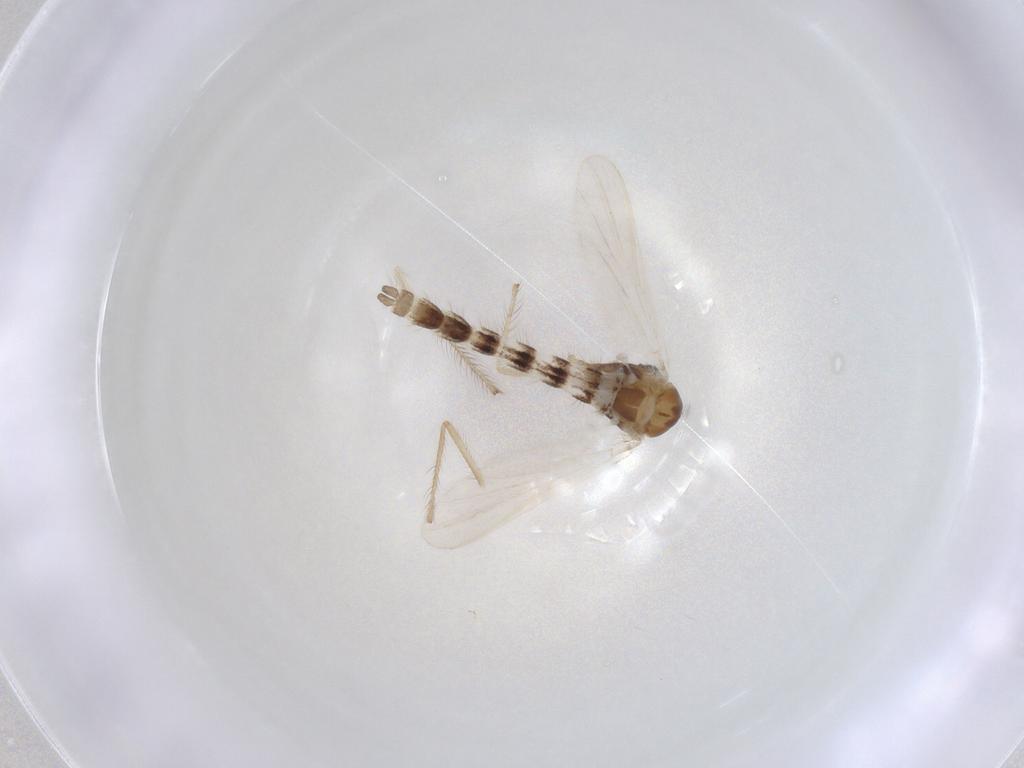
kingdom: Animalia
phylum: Arthropoda
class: Insecta
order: Diptera
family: Chironomidae
